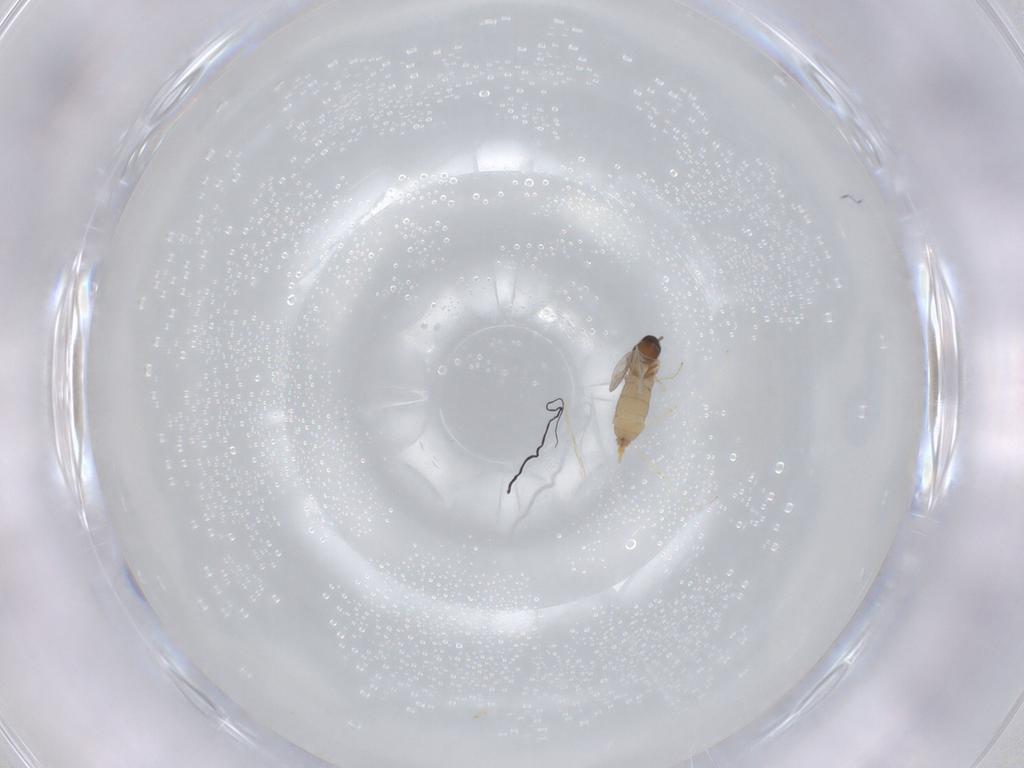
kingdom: Animalia
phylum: Arthropoda
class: Insecta
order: Diptera
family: Cecidomyiidae
